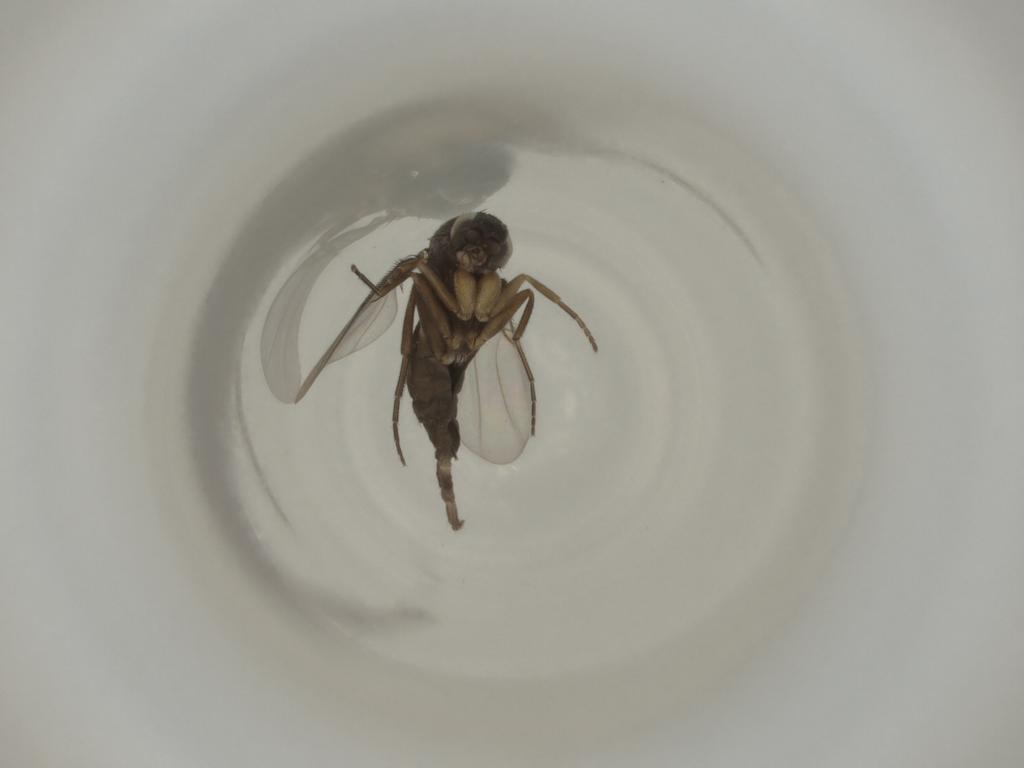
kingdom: Animalia
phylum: Arthropoda
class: Insecta
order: Diptera
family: Phoridae
